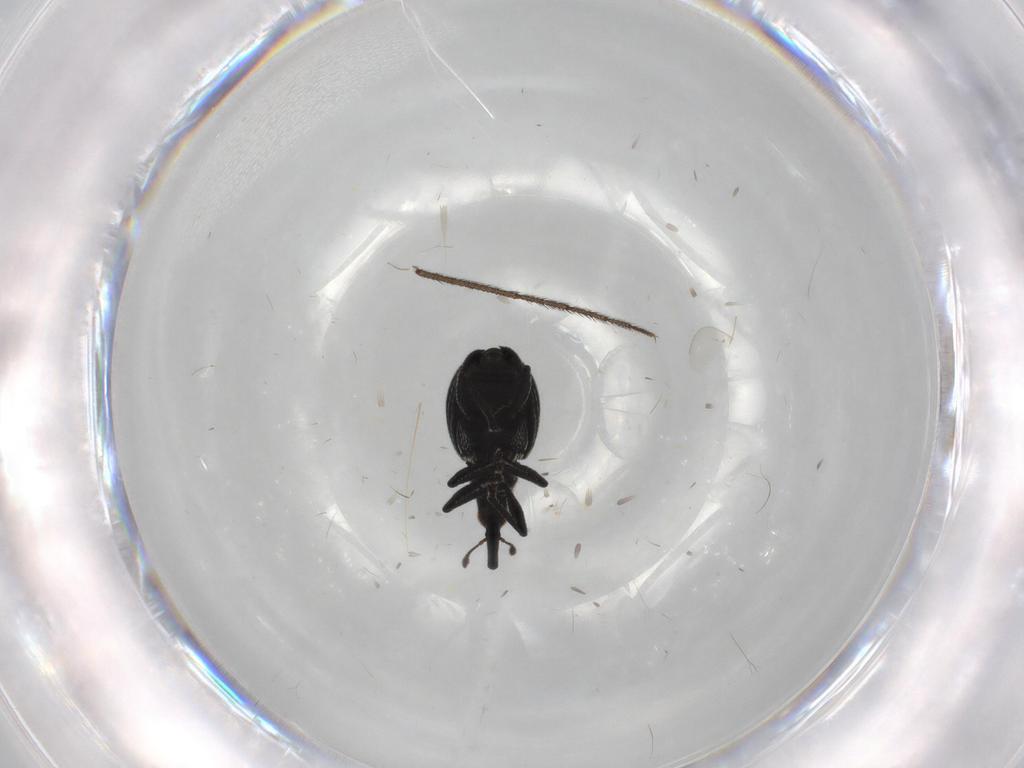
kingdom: Animalia
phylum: Arthropoda
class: Insecta
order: Coleoptera
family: Brentidae
